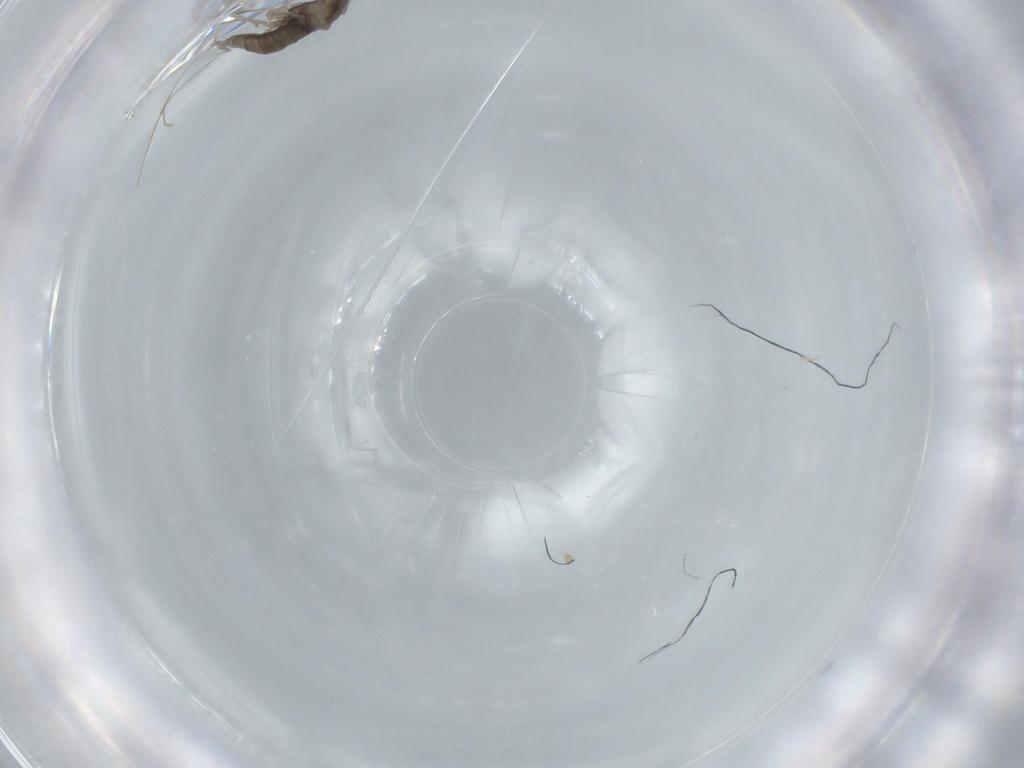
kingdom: Animalia
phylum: Arthropoda
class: Insecta
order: Diptera
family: Cecidomyiidae
